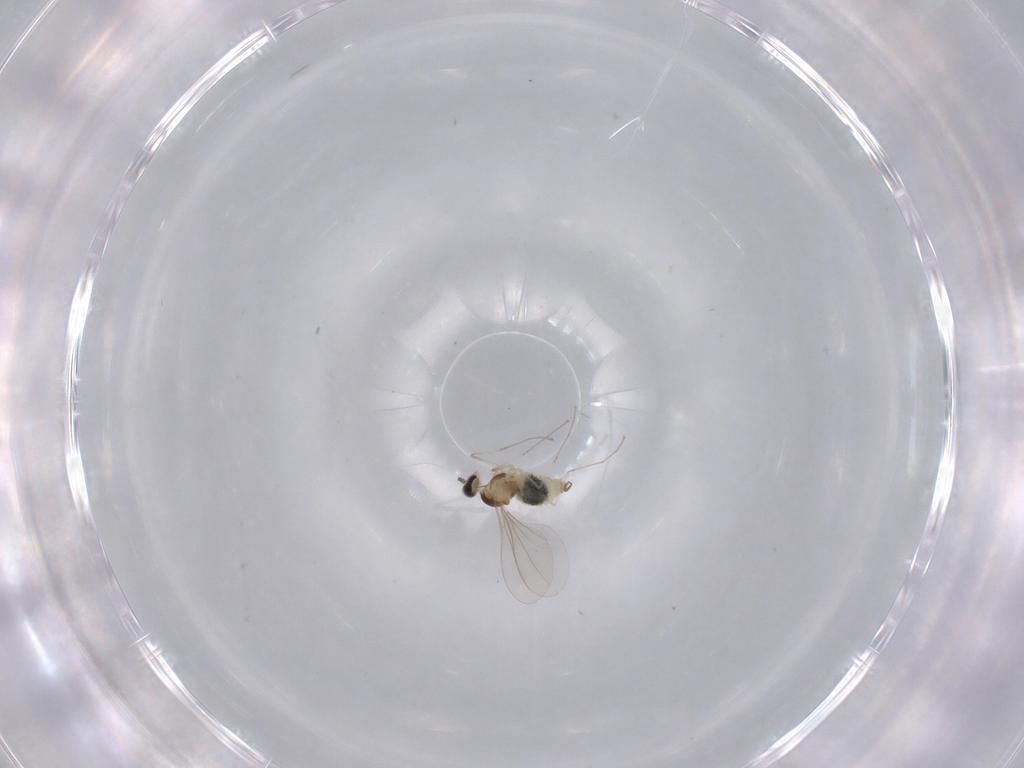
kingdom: Animalia
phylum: Arthropoda
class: Insecta
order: Diptera
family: Cecidomyiidae
